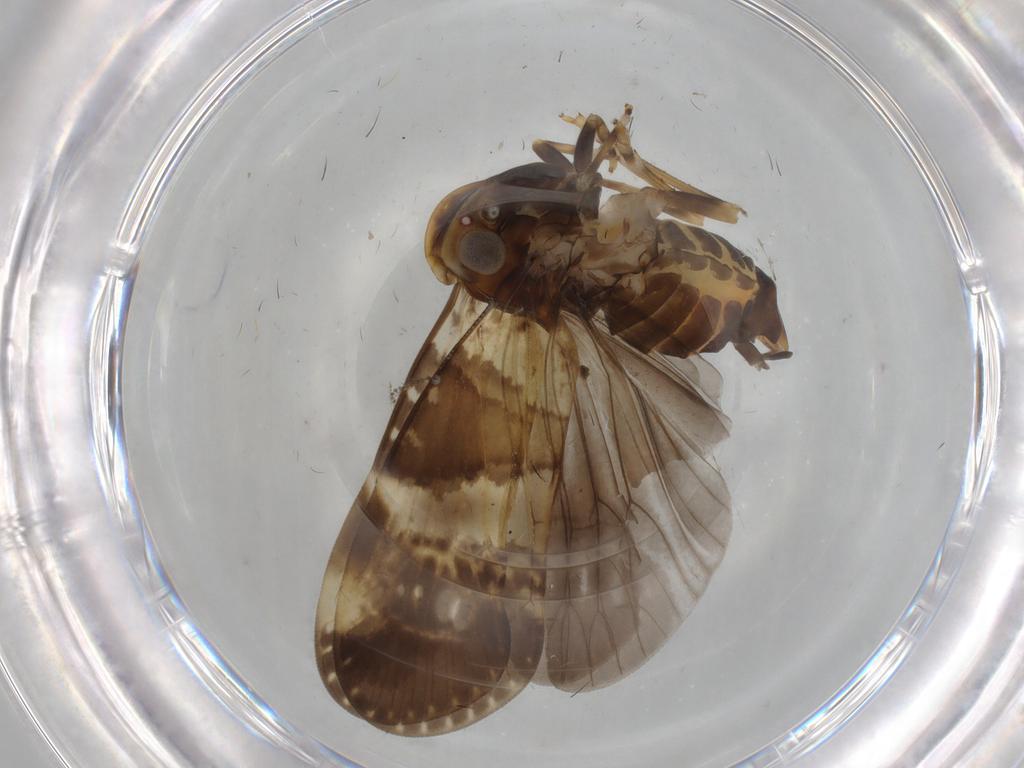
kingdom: Animalia
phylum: Arthropoda
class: Insecta
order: Hemiptera
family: Cixiidae
